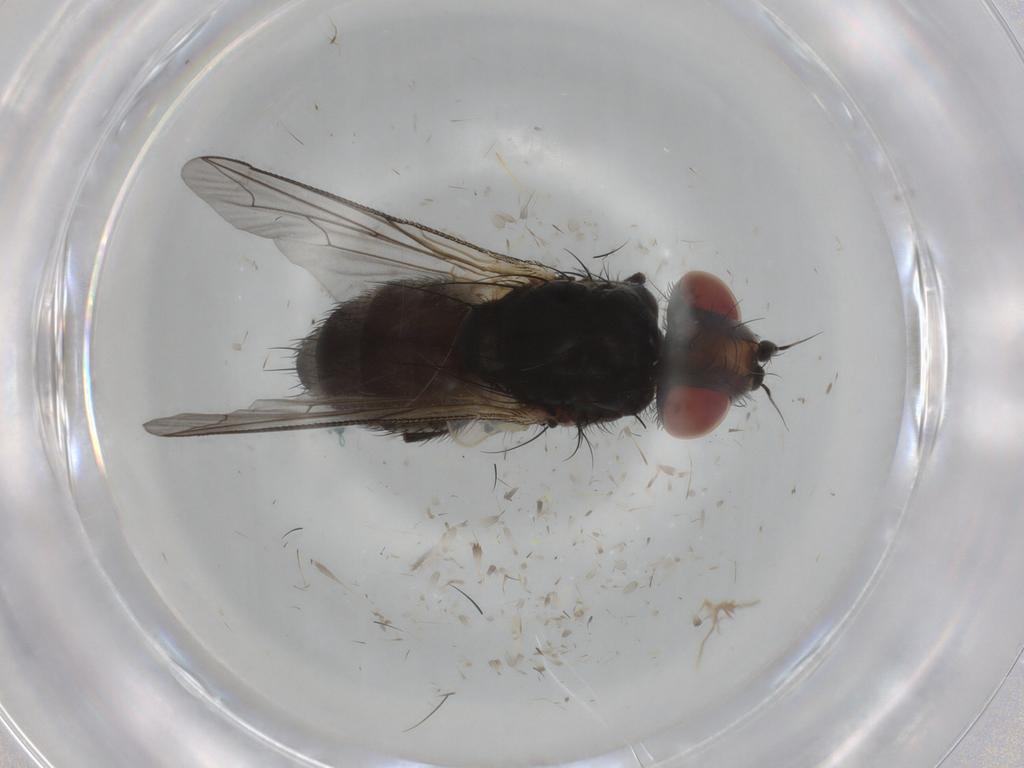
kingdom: Animalia
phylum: Arthropoda
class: Insecta
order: Diptera
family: Sarcophagidae
